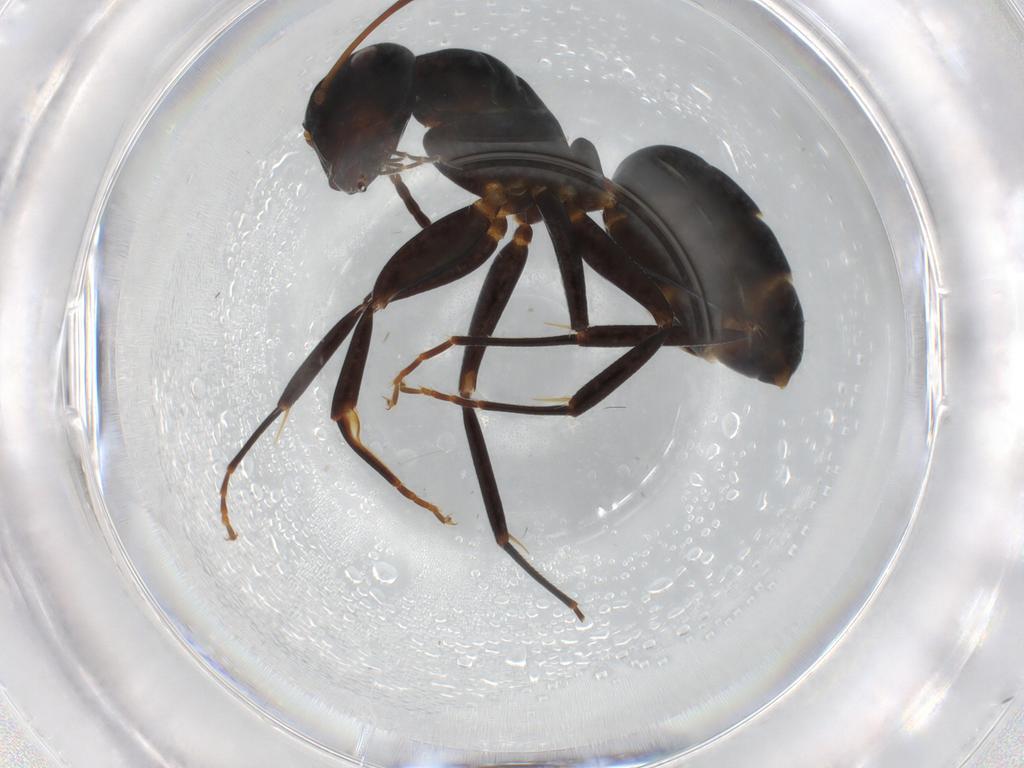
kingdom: Animalia
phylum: Arthropoda
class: Insecta
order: Hymenoptera
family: Formicidae
